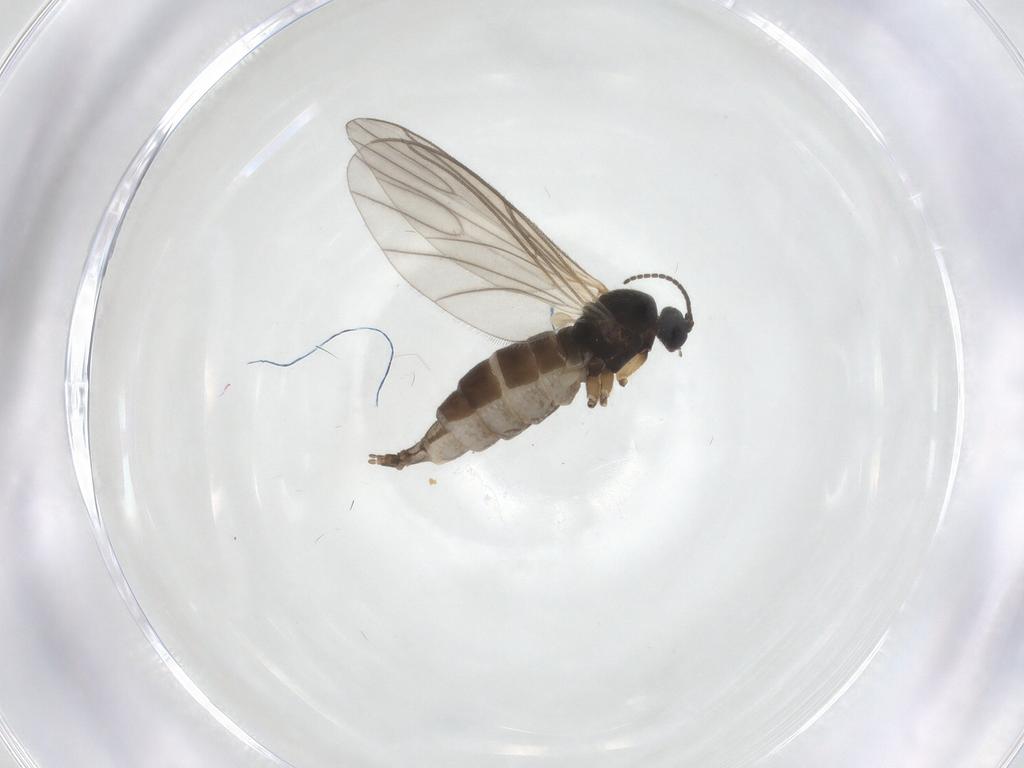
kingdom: Animalia
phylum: Arthropoda
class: Insecta
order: Diptera
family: Sciaridae
